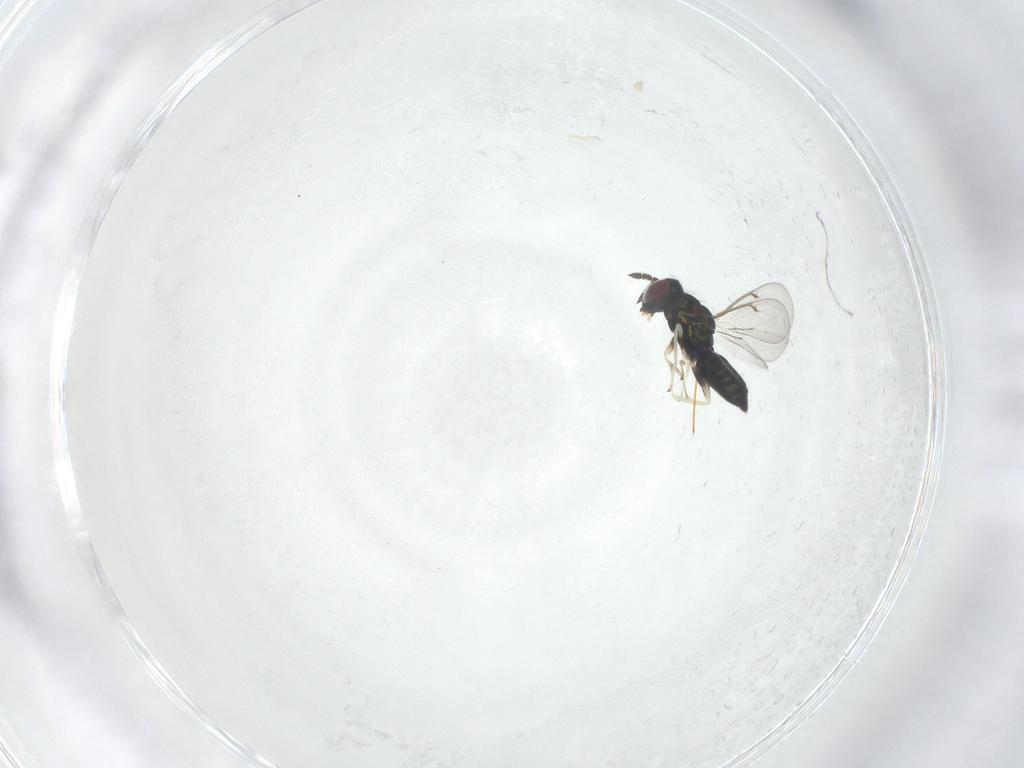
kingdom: Animalia
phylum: Arthropoda
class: Insecta
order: Hymenoptera
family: Eulophidae
